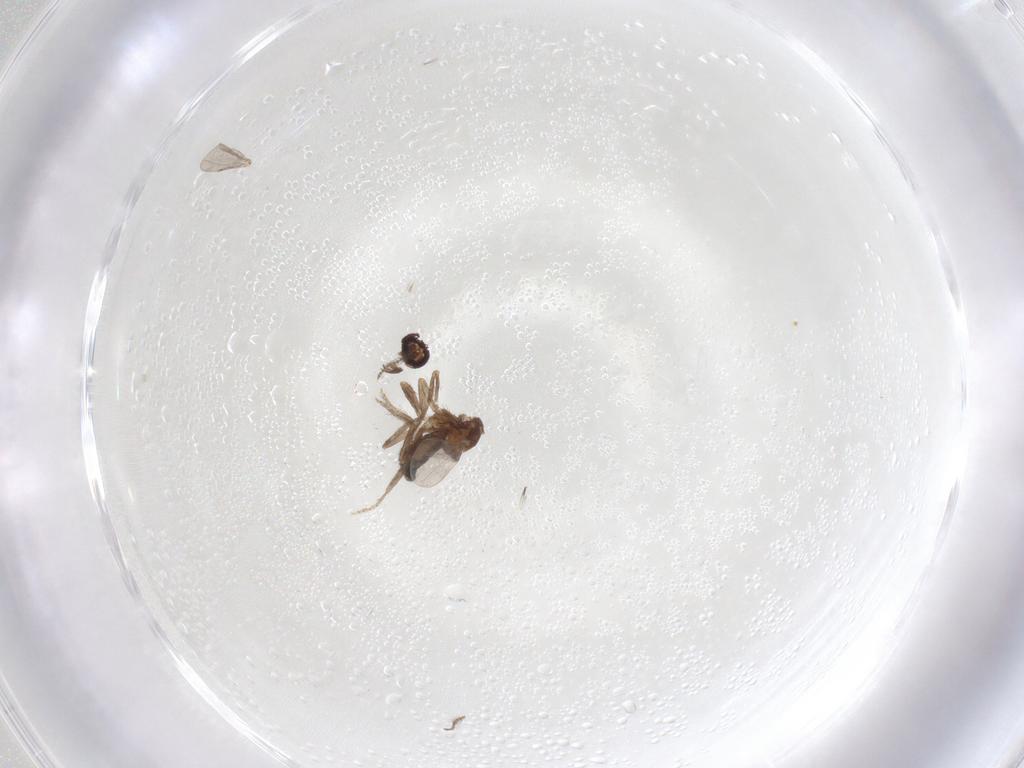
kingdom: Animalia
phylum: Arthropoda
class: Insecta
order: Diptera
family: Ceratopogonidae
